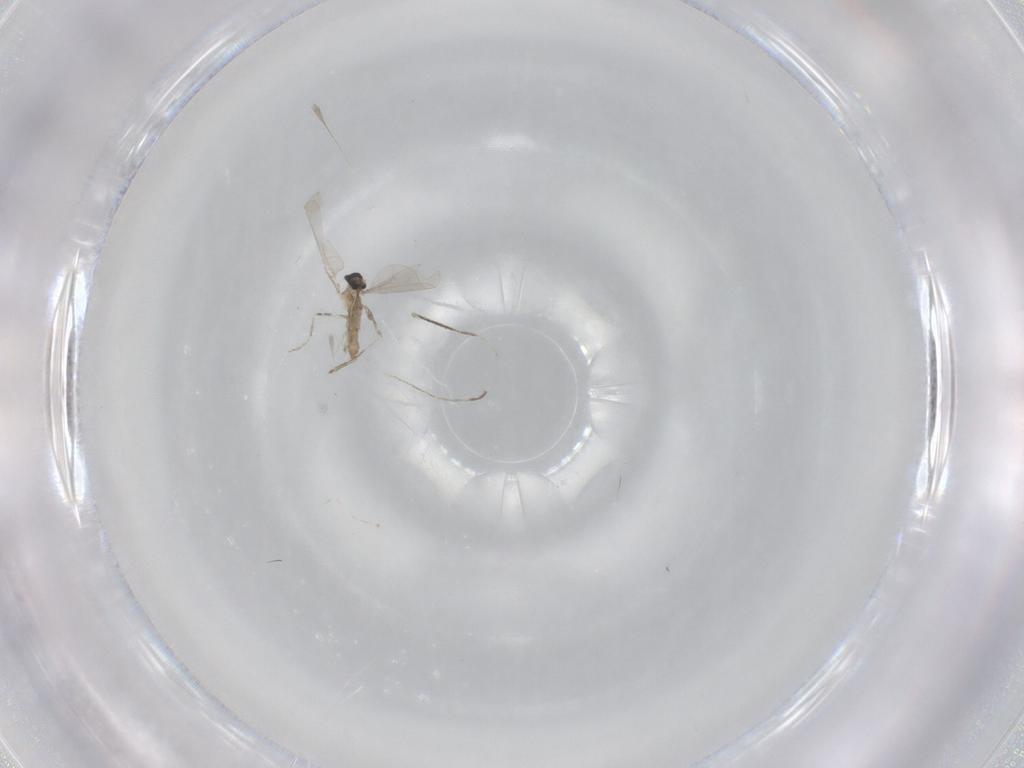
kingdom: Animalia
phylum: Arthropoda
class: Insecta
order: Diptera
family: Cecidomyiidae
